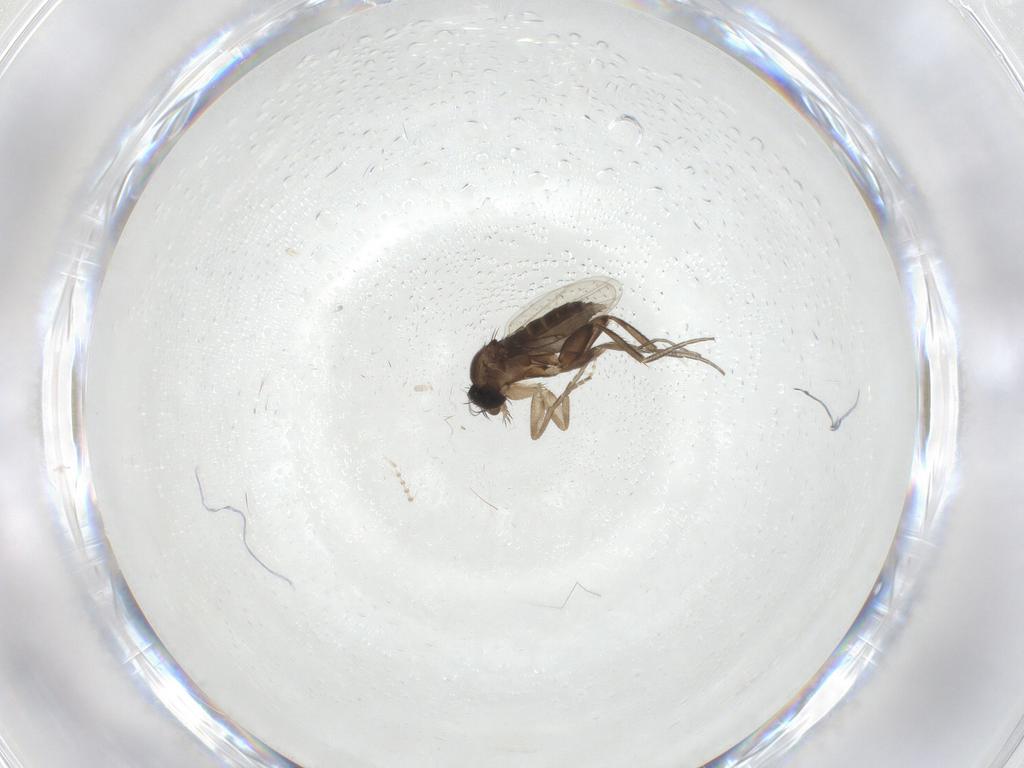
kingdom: Animalia
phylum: Arthropoda
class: Insecta
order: Diptera
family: Phoridae
